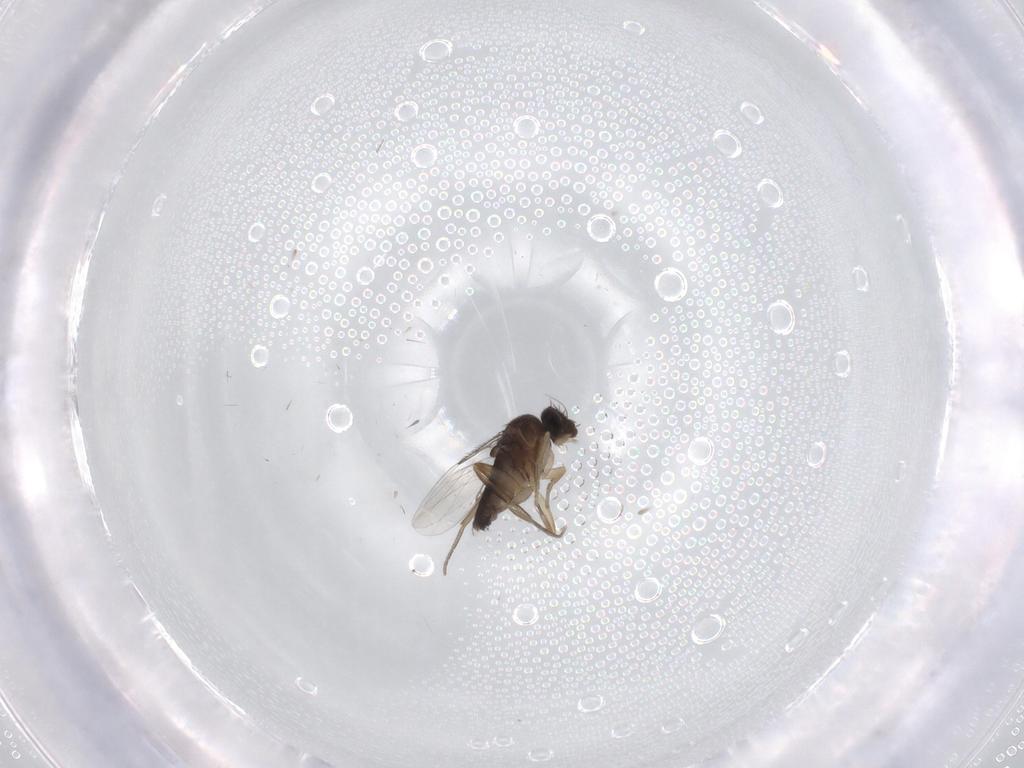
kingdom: Animalia
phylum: Arthropoda
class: Insecta
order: Diptera
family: Phoridae
